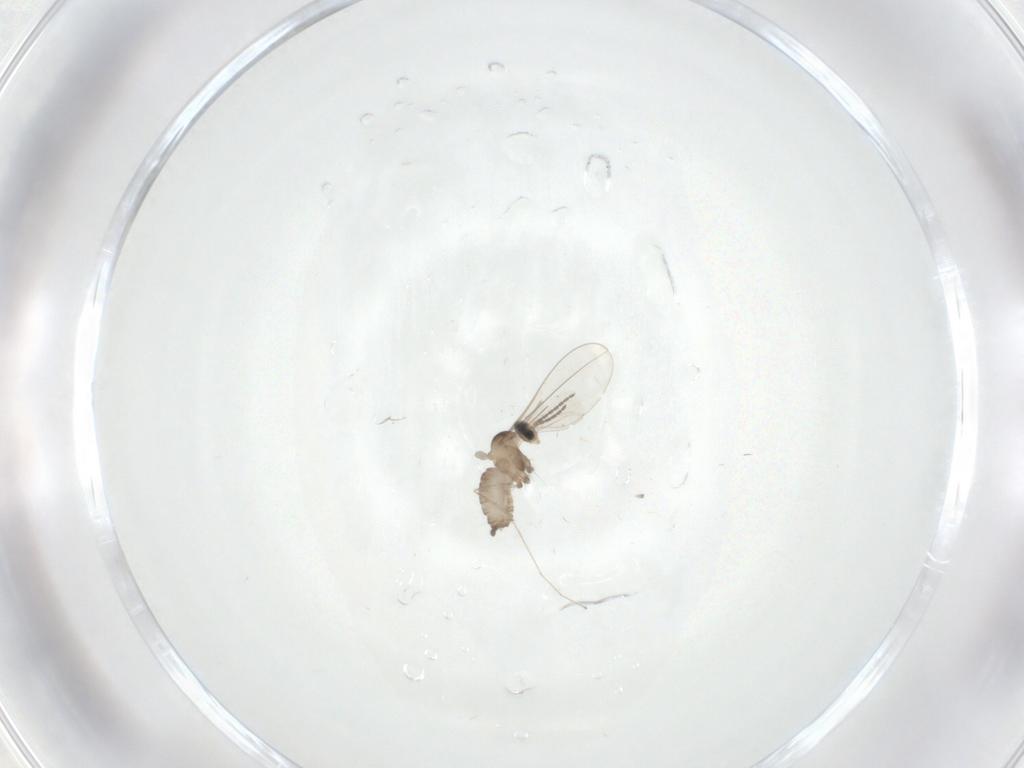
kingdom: Animalia
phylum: Arthropoda
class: Insecta
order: Diptera
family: Cecidomyiidae
